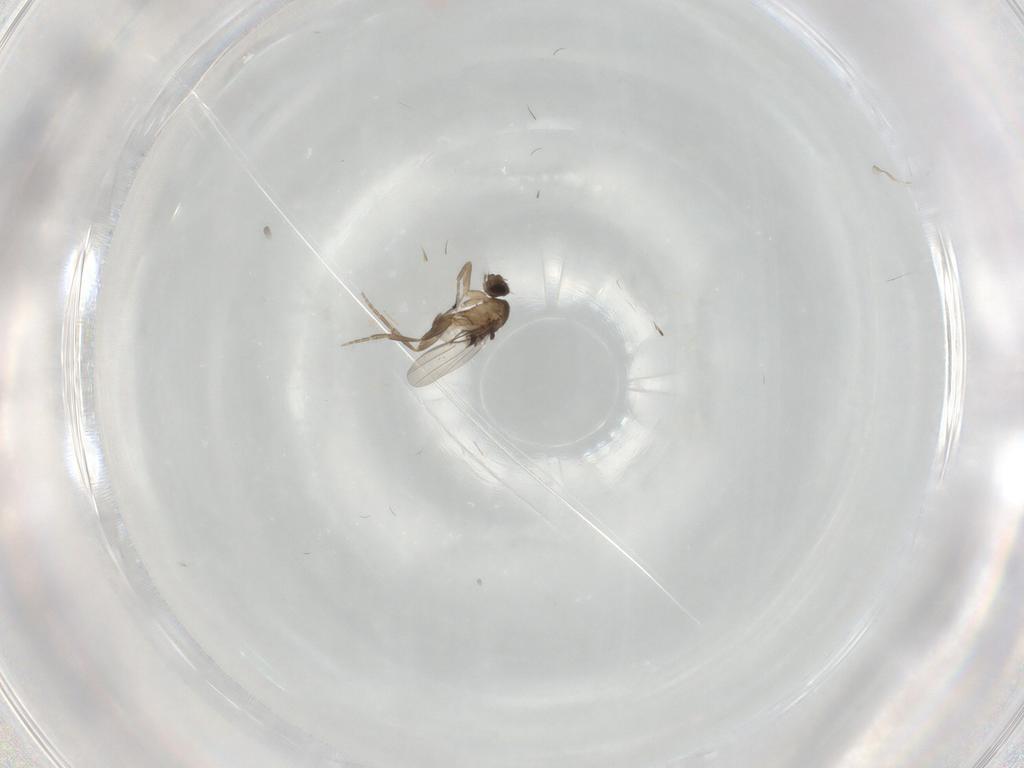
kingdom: Animalia
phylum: Arthropoda
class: Insecta
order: Diptera
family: Phoridae
